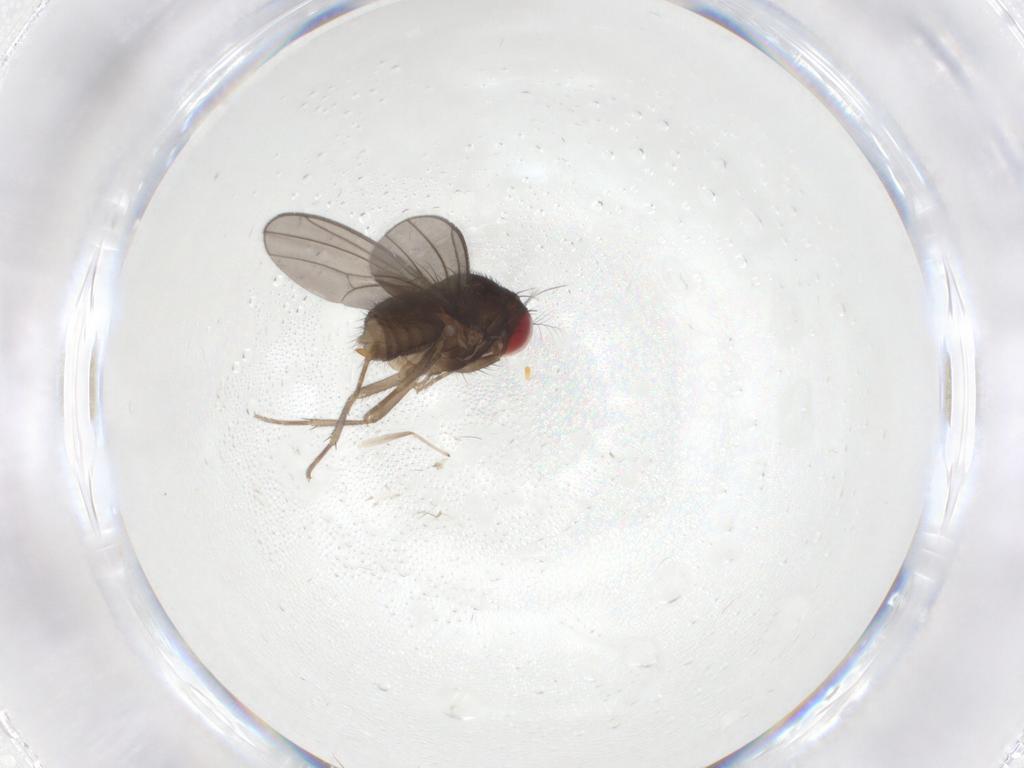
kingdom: Animalia
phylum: Arthropoda
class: Insecta
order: Diptera
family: Drosophilidae
